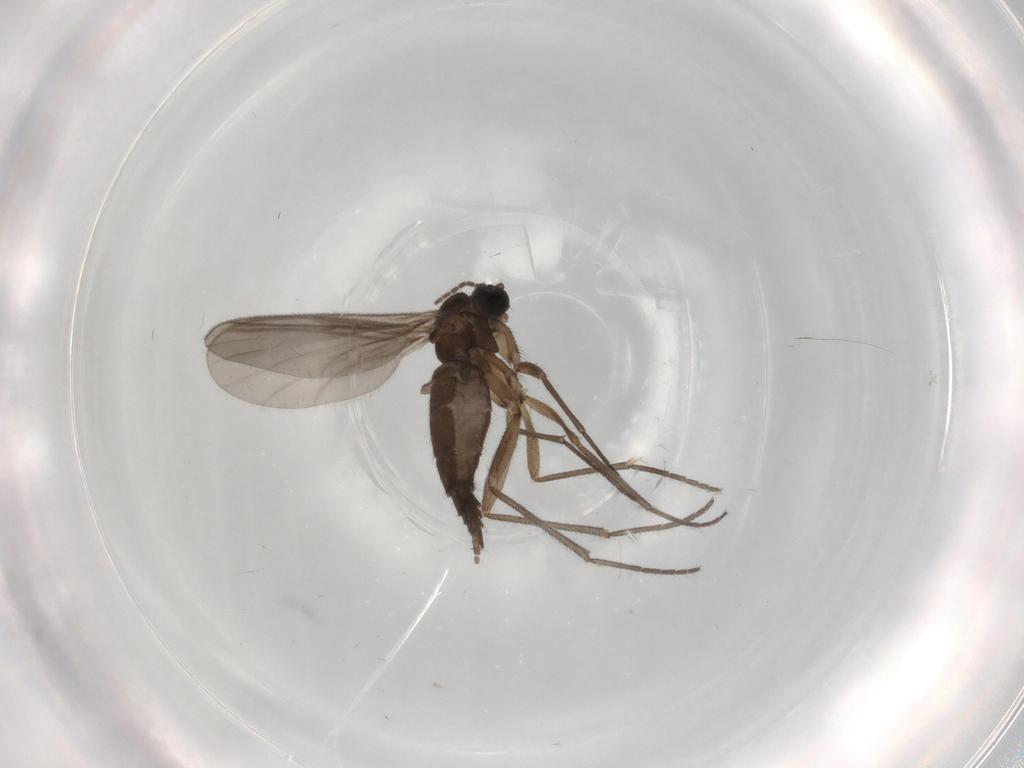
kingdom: Animalia
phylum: Arthropoda
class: Insecta
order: Diptera
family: Sciaridae
